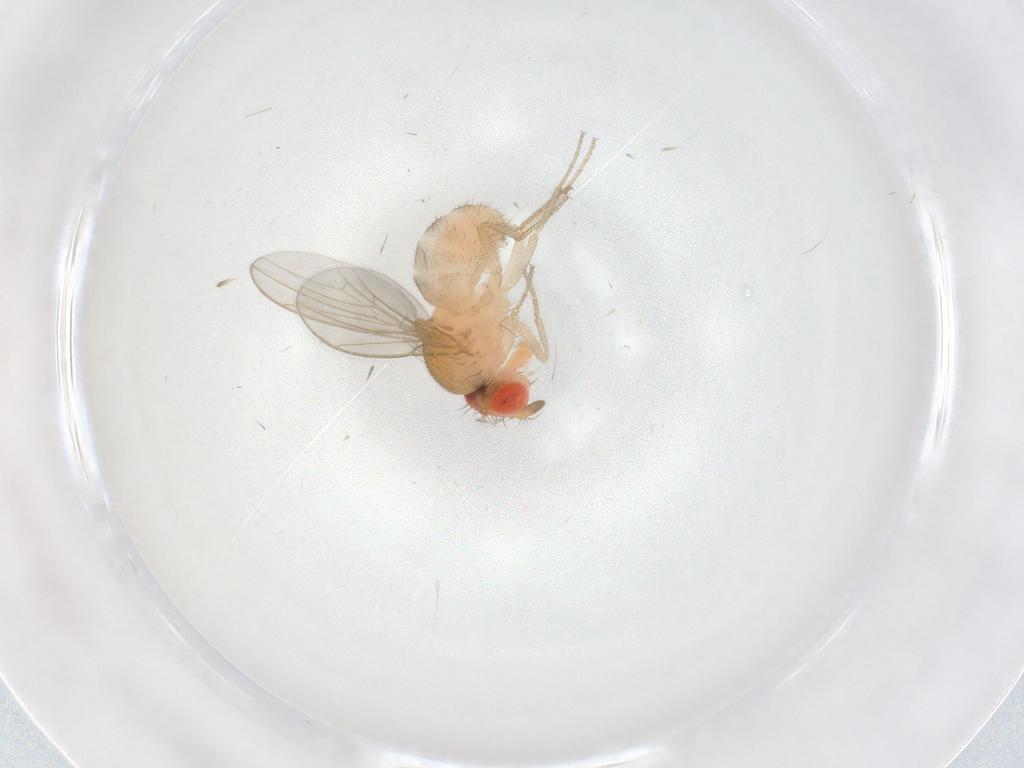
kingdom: Animalia
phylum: Arthropoda
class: Insecta
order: Diptera
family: Drosophilidae
